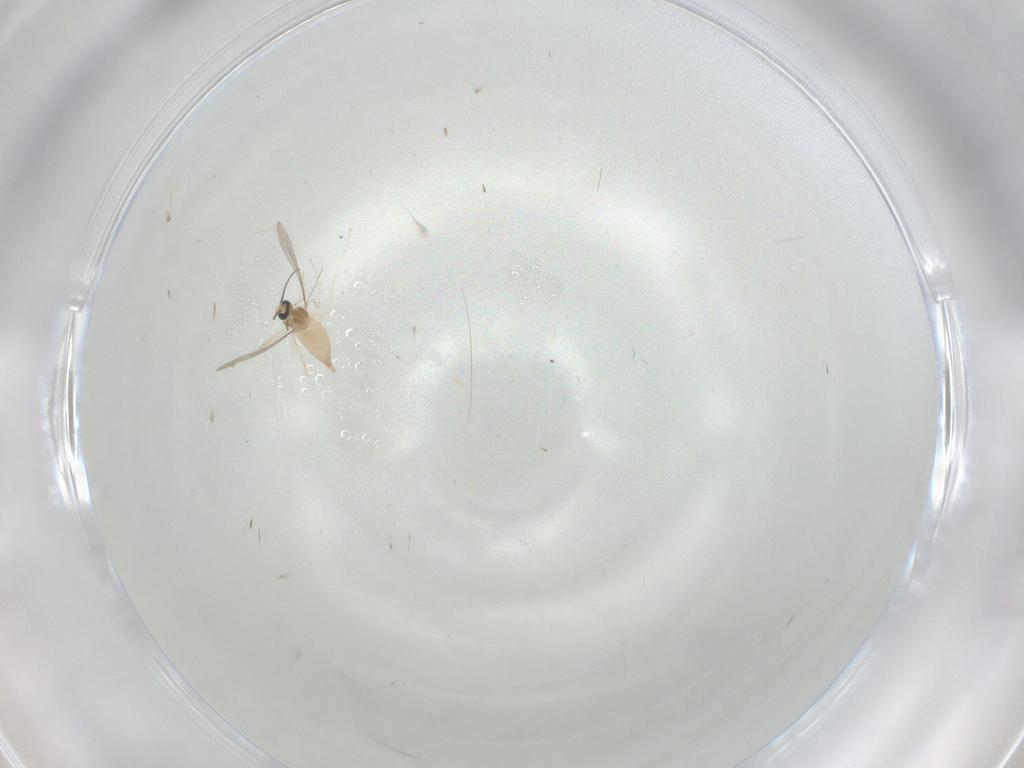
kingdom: Animalia
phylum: Arthropoda
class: Insecta
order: Diptera
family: Cecidomyiidae
